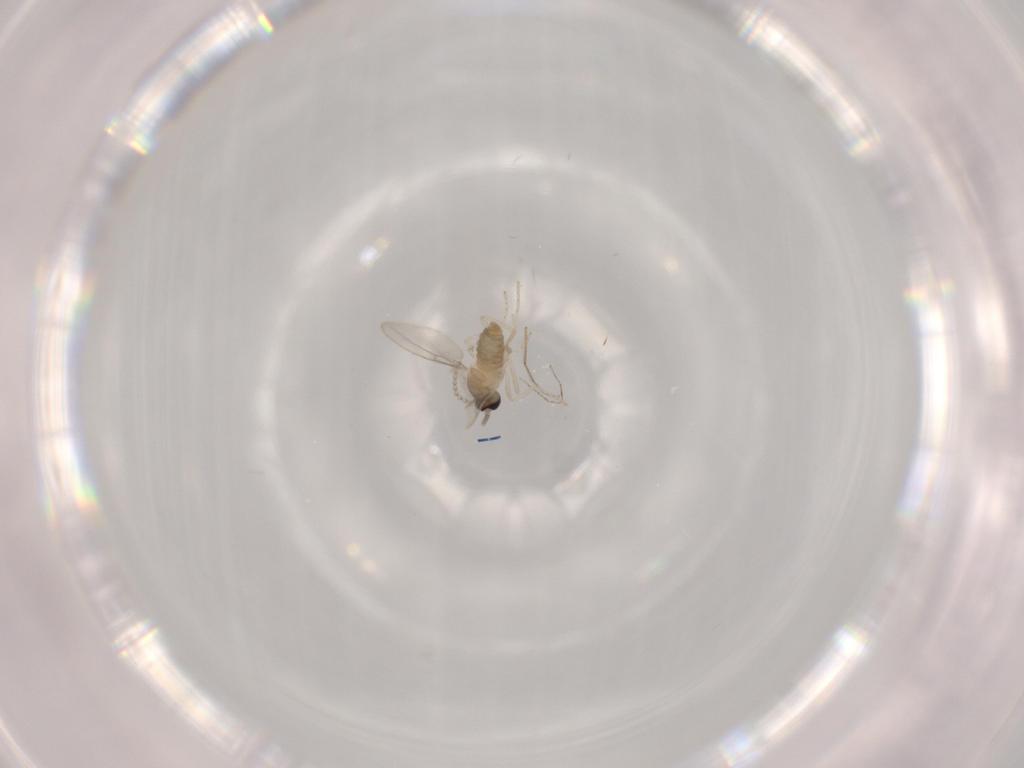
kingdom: Animalia
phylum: Arthropoda
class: Insecta
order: Diptera
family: Cecidomyiidae
